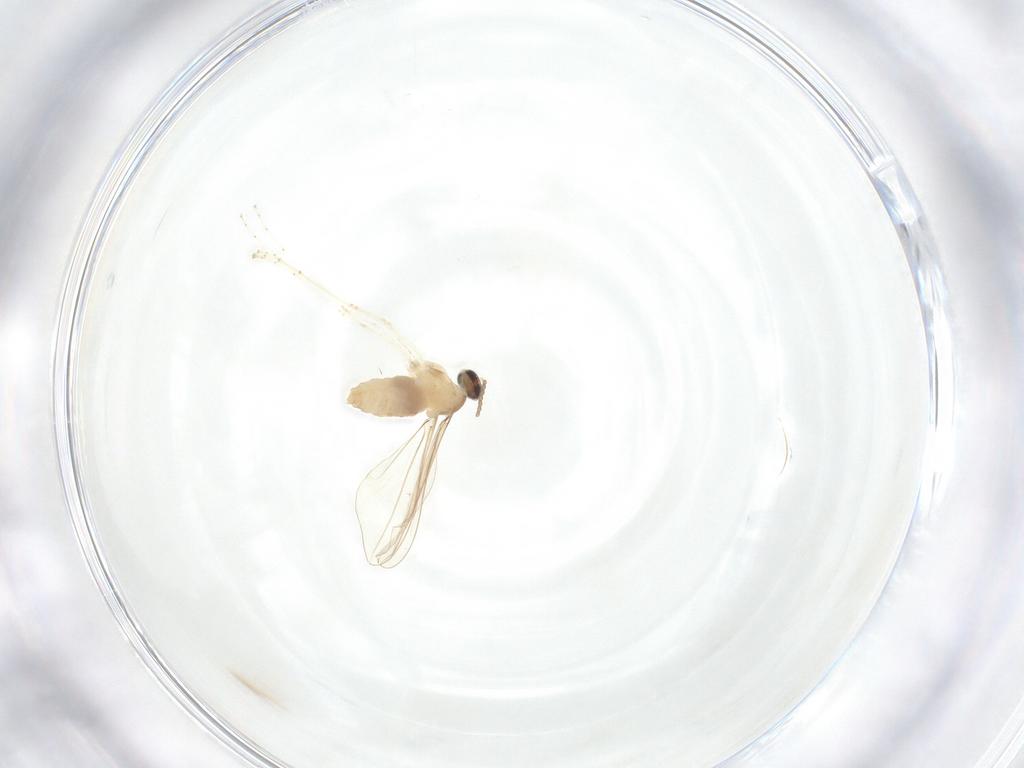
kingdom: Animalia
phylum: Arthropoda
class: Insecta
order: Diptera
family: Cecidomyiidae
